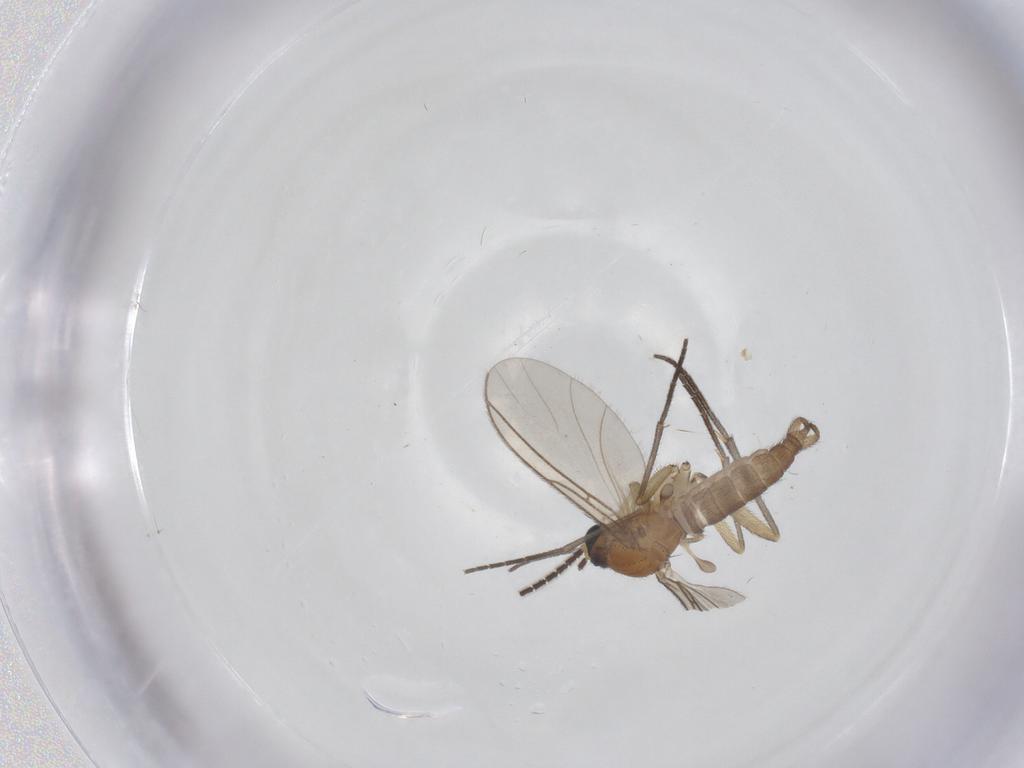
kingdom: Animalia
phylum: Arthropoda
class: Insecta
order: Diptera
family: Sciaridae
